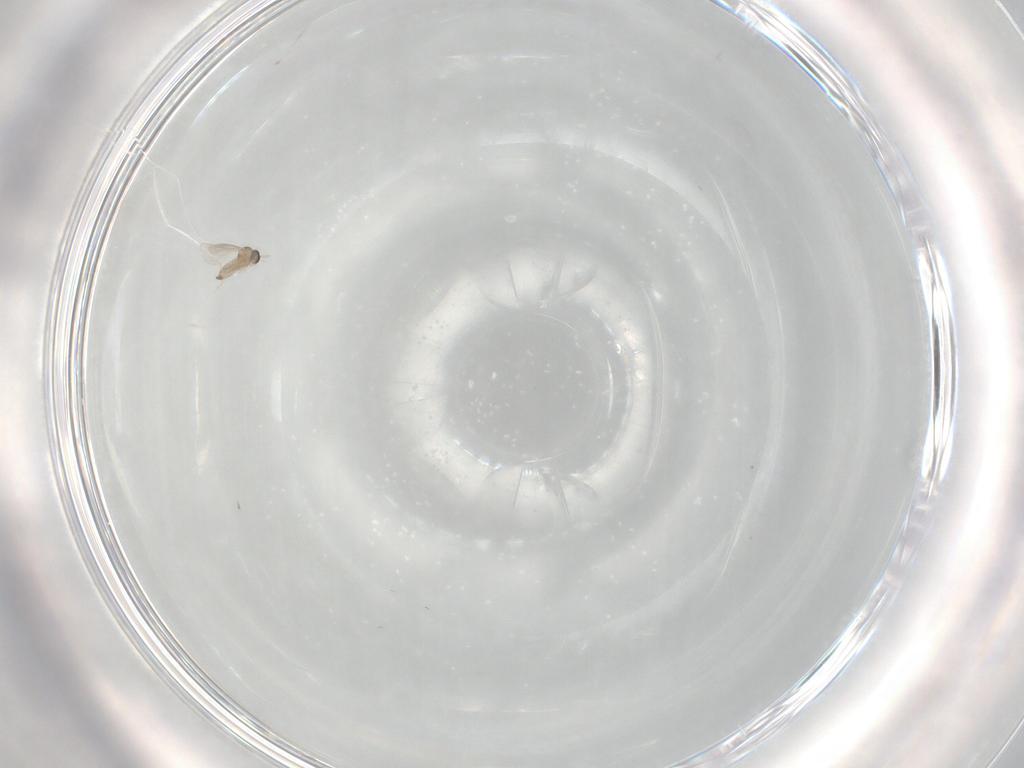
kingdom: Animalia
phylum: Arthropoda
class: Insecta
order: Diptera
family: Cecidomyiidae
